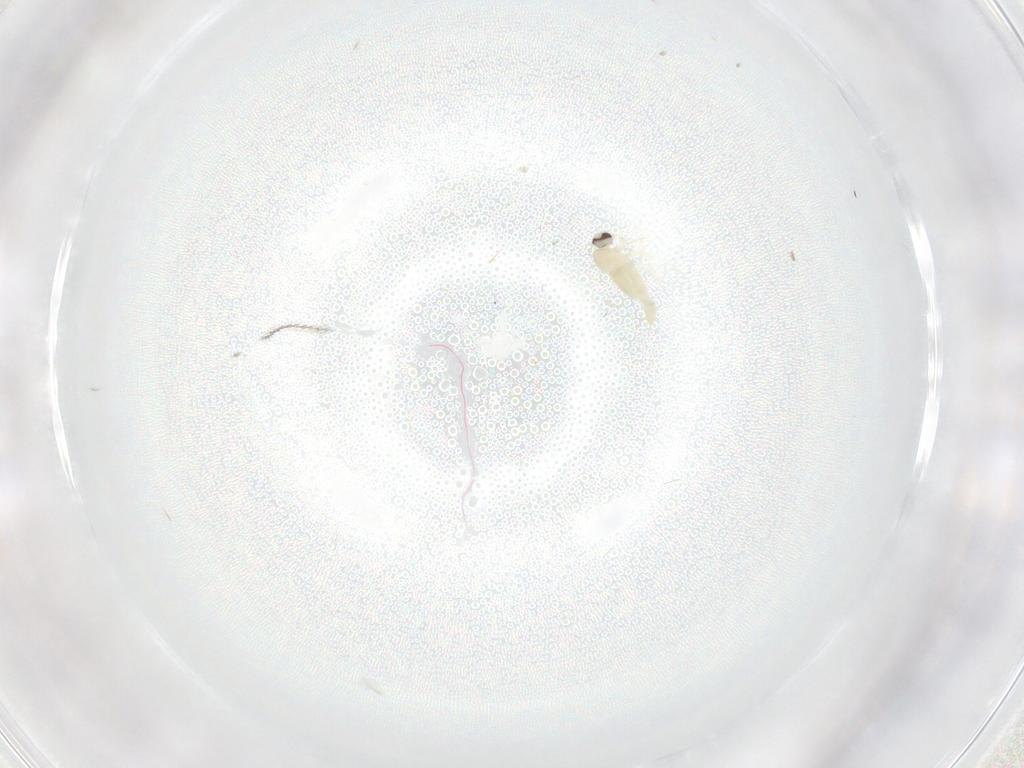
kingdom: Animalia
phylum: Arthropoda
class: Insecta
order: Diptera
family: Cecidomyiidae
